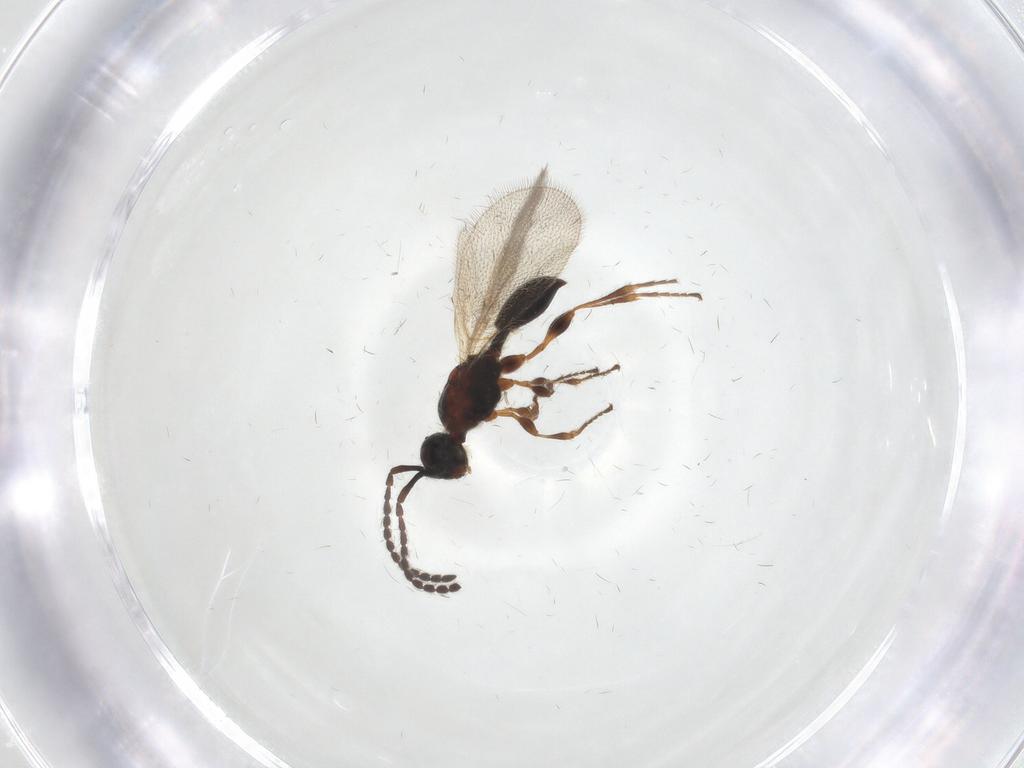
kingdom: Animalia
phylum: Arthropoda
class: Insecta
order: Hymenoptera
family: Diapriidae
